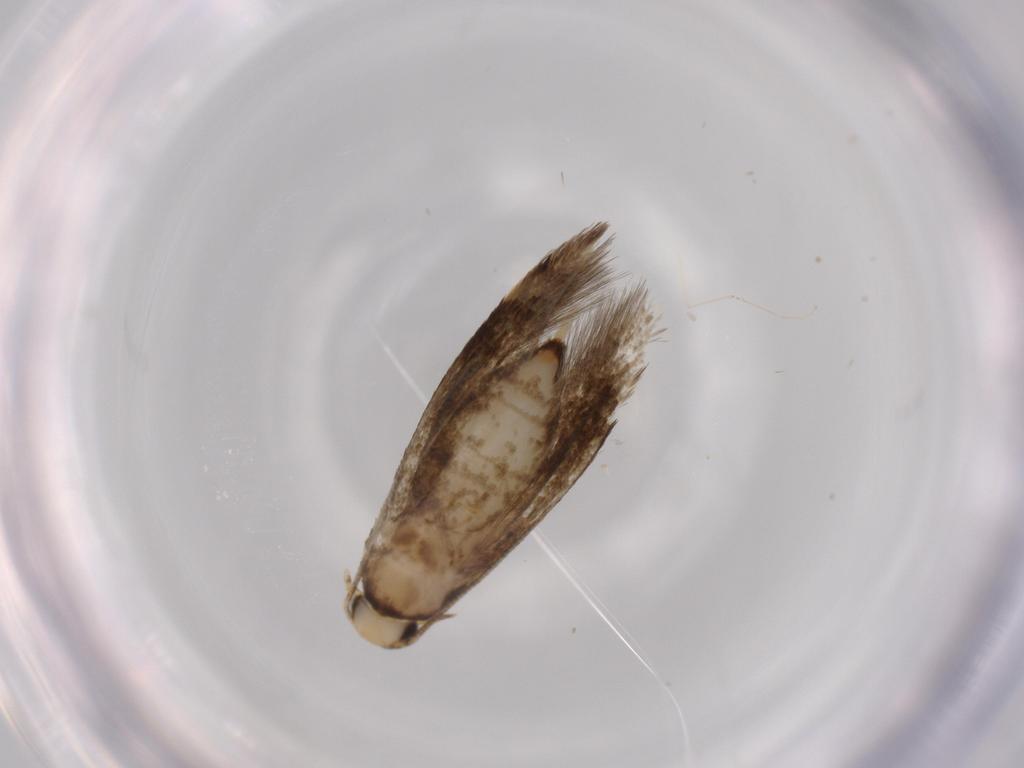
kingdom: Animalia
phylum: Arthropoda
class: Insecta
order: Lepidoptera
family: Tineidae
